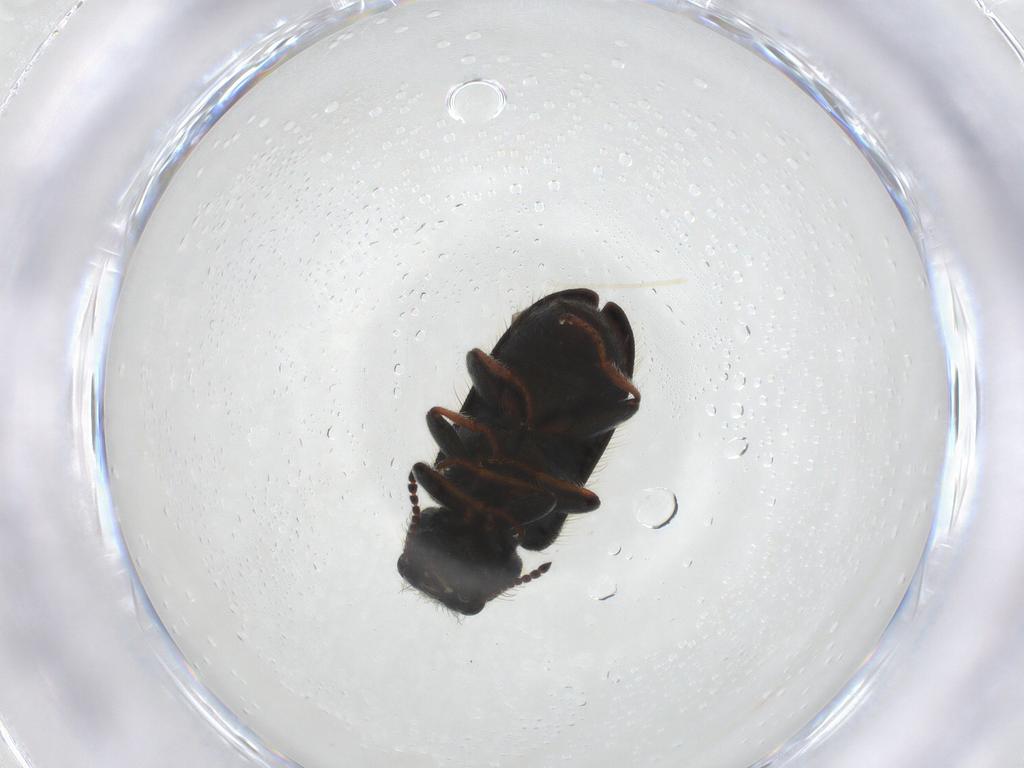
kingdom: Animalia
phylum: Arthropoda
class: Insecta
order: Coleoptera
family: Melyridae
